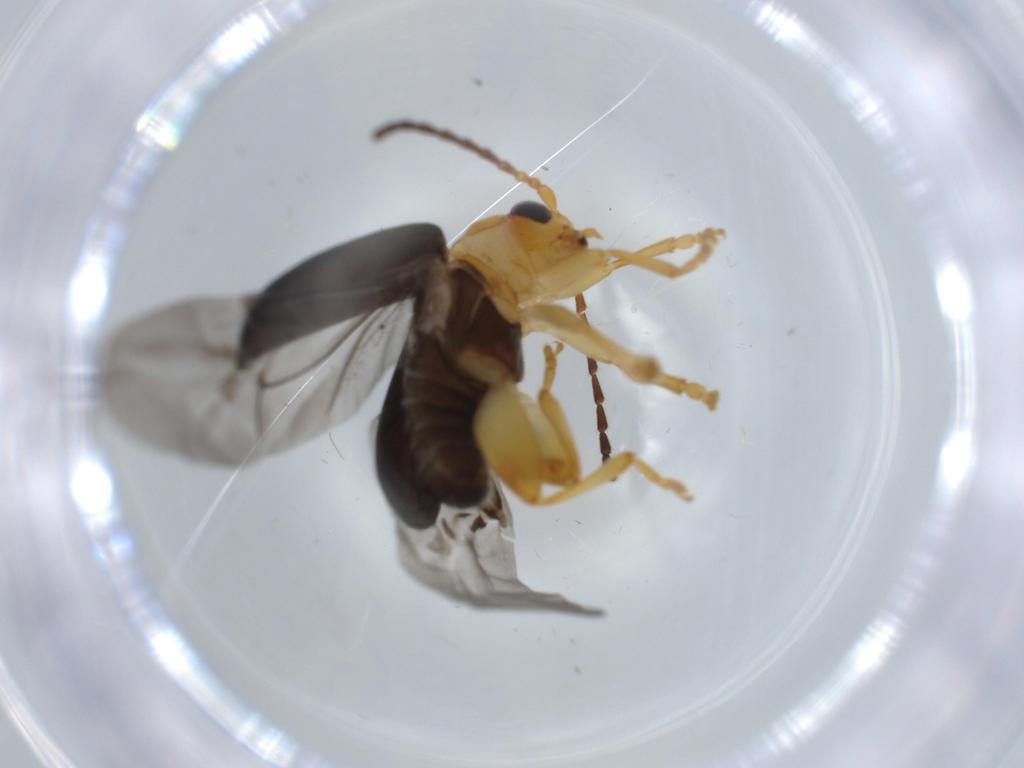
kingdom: Animalia
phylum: Arthropoda
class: Insecta
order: Coleoptera
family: Chrysomelidae
